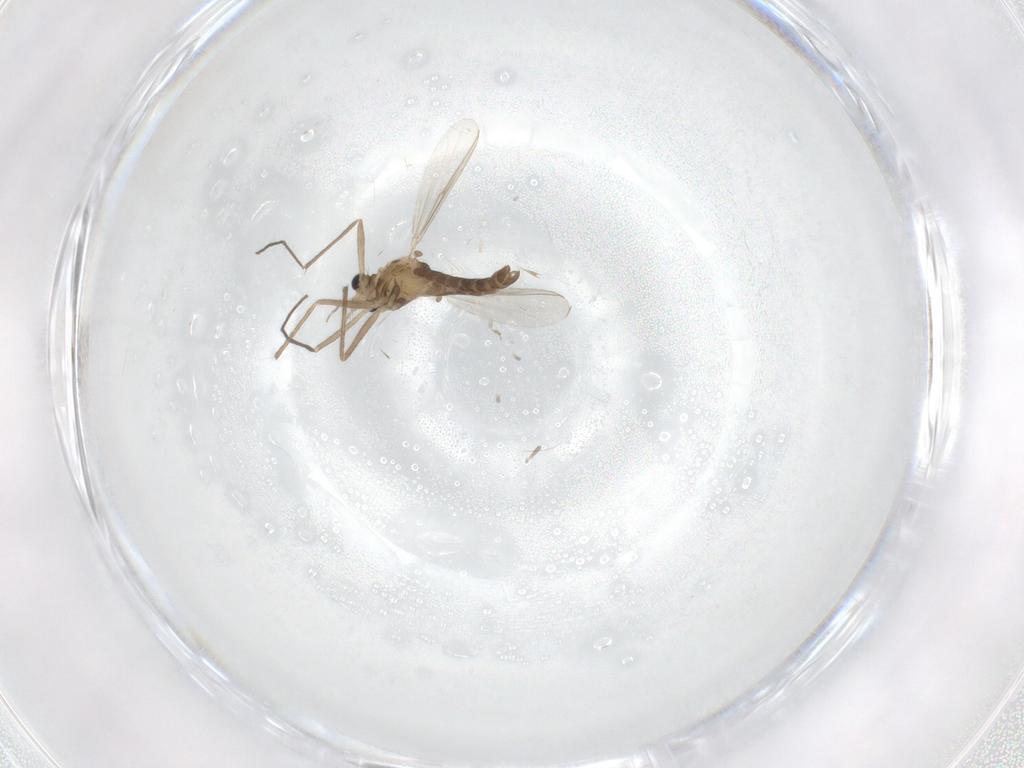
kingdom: Animalia
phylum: Arthropoda
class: Insecta
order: Diptera
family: Chironomidae
